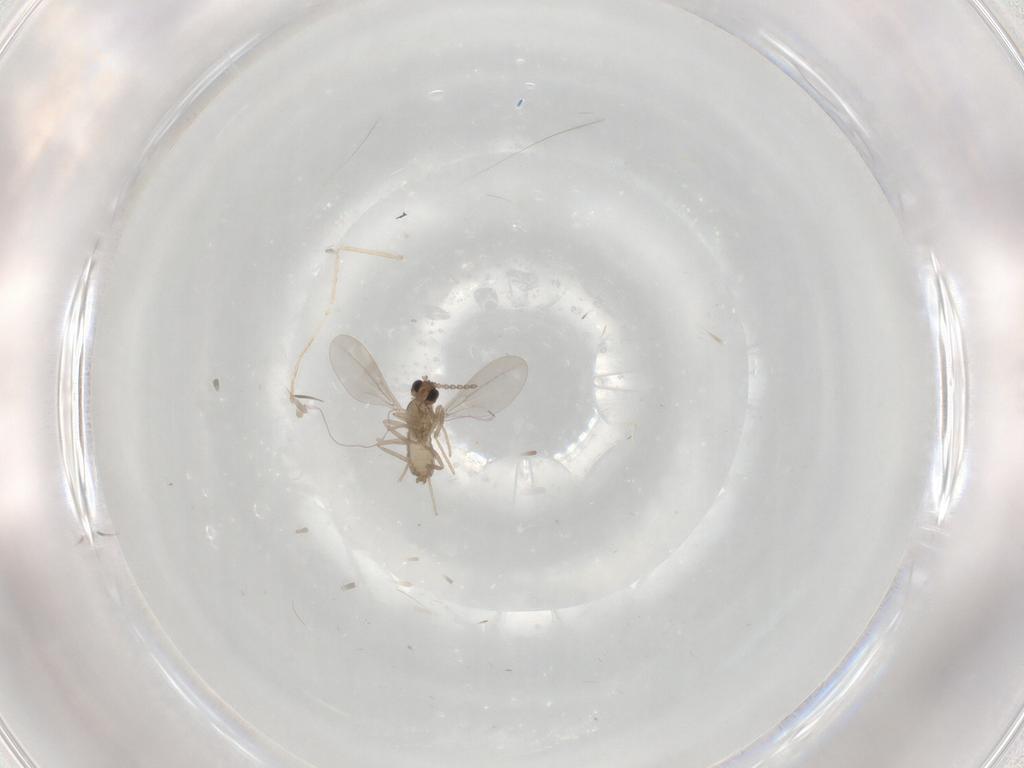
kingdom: Animalia
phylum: Arthropoda
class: Insecta
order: Diptera
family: Cecidomyiidae
